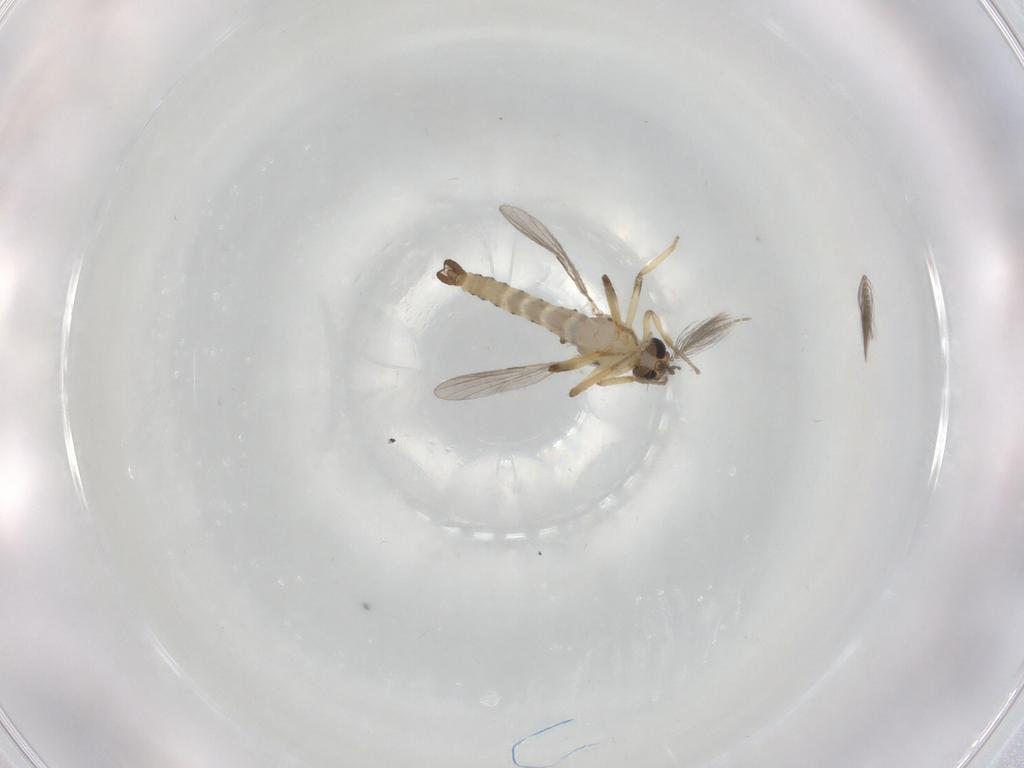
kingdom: Animalia
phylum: Arthropoda
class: Insecta
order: Diptera
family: Ceratopogonidae
